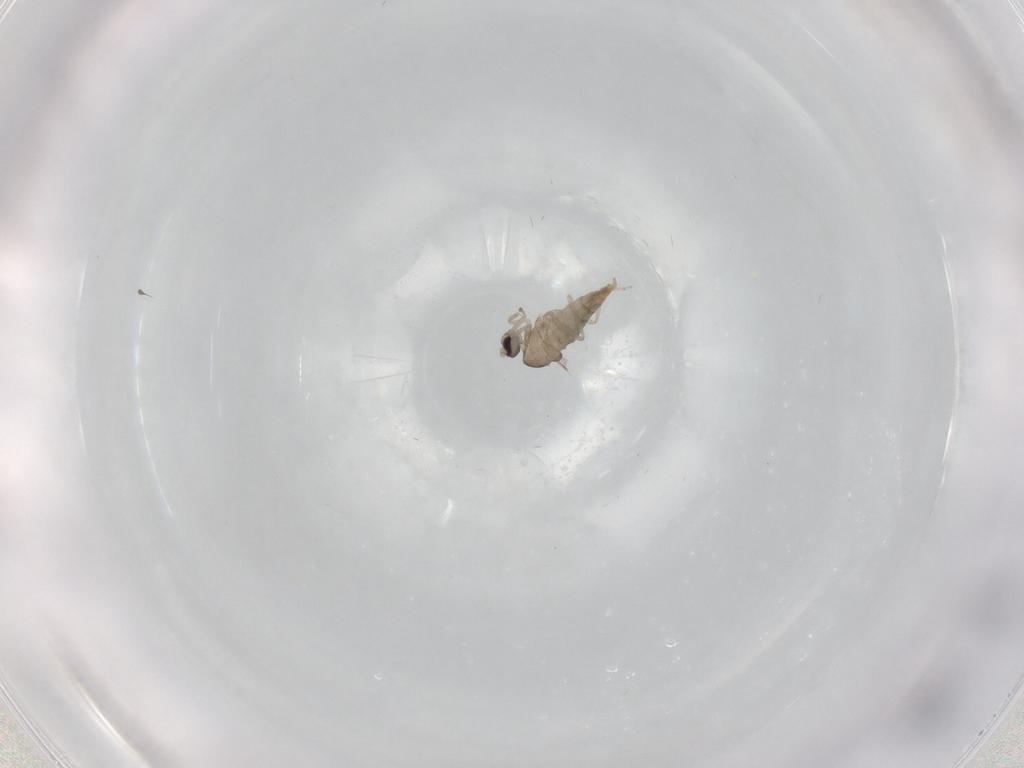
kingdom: Animalia
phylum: Arthropoda
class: Insecta
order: Diptera
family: Cecidomyiidae
